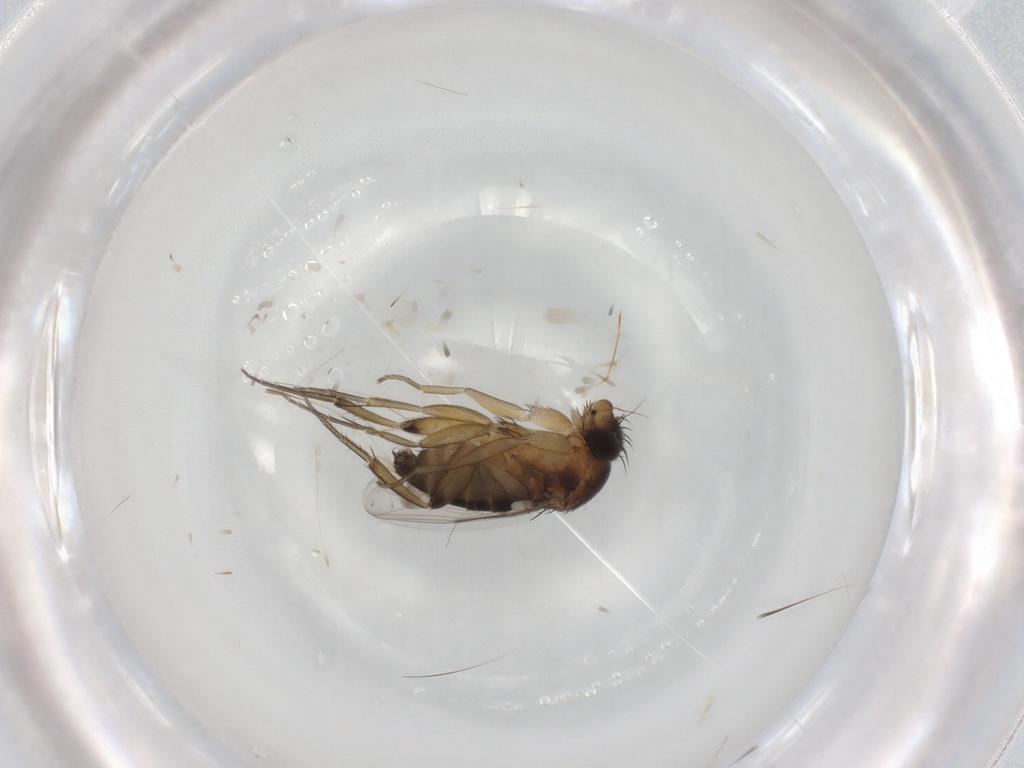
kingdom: Animalia
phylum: Arthropoda
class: Insecta
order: Diptera
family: Phoridae
